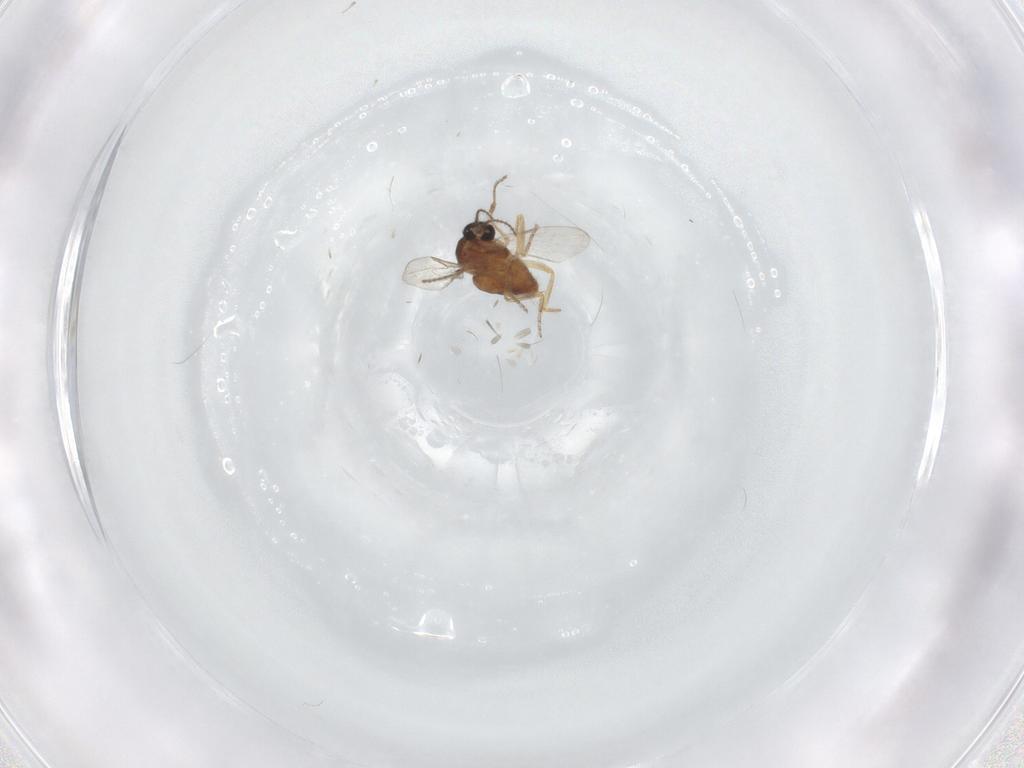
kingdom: Animalia
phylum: Arthropoda
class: Insecta
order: Diptera
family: Ceratopogonidae
